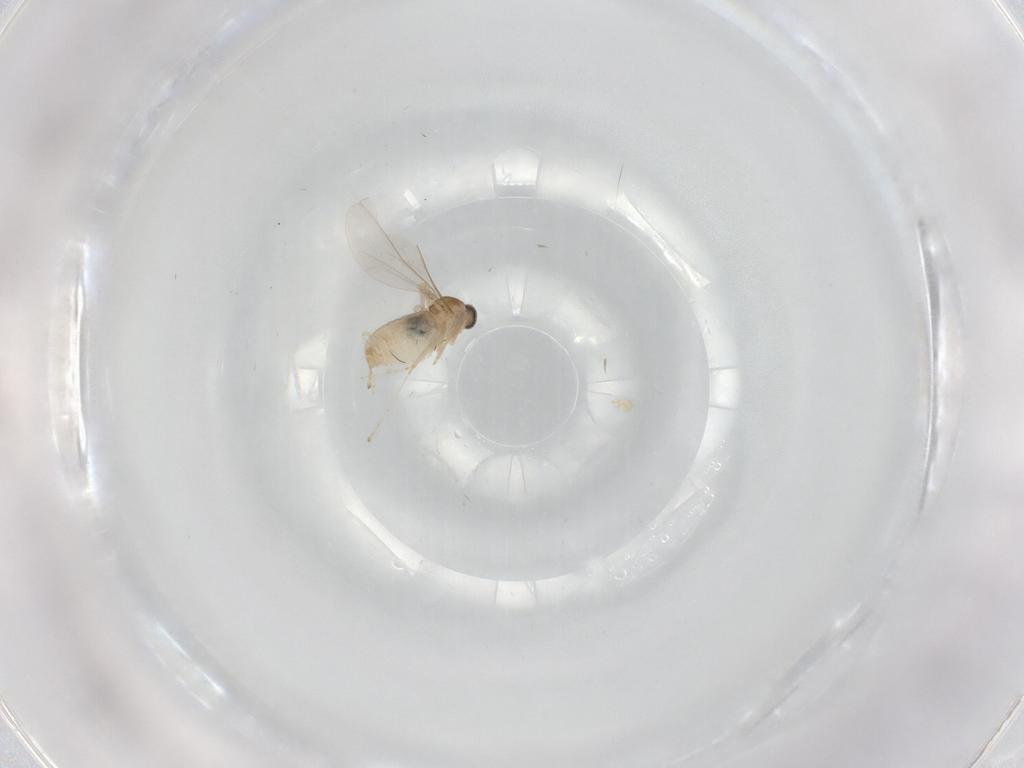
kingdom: Animalia
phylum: Arthropoda
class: Insecta
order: Diptera
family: Cecidomyiidae
